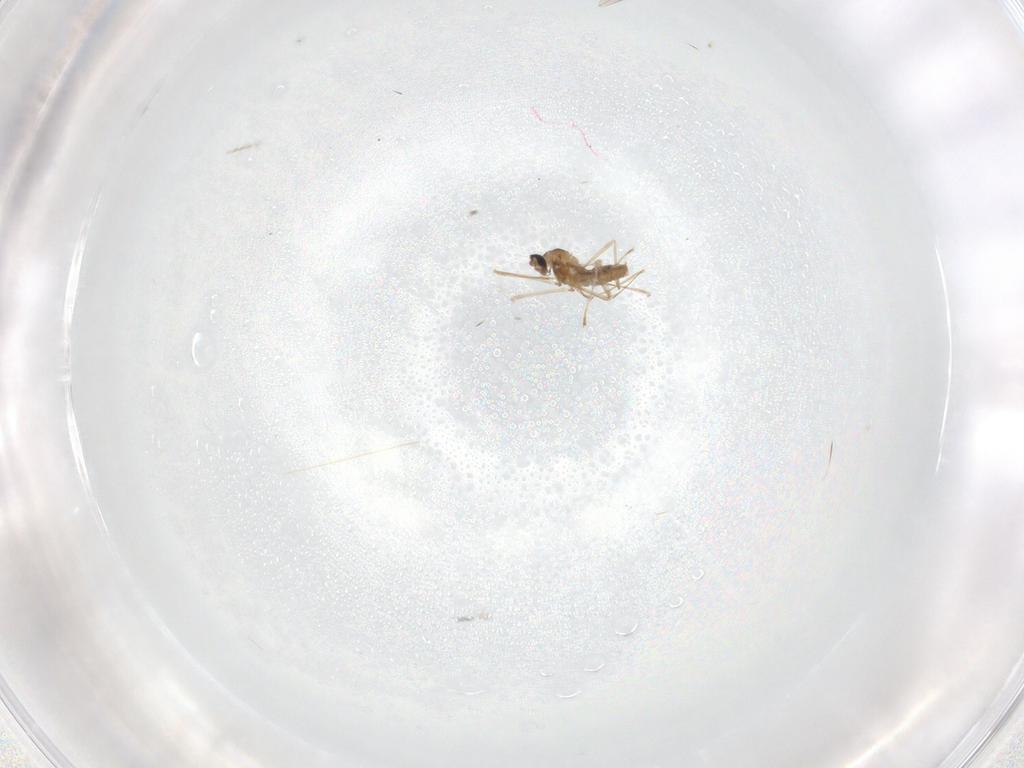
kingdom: Animalia
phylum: Arthropoda
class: Insecta
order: Diptera
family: Cecidomyiidae
